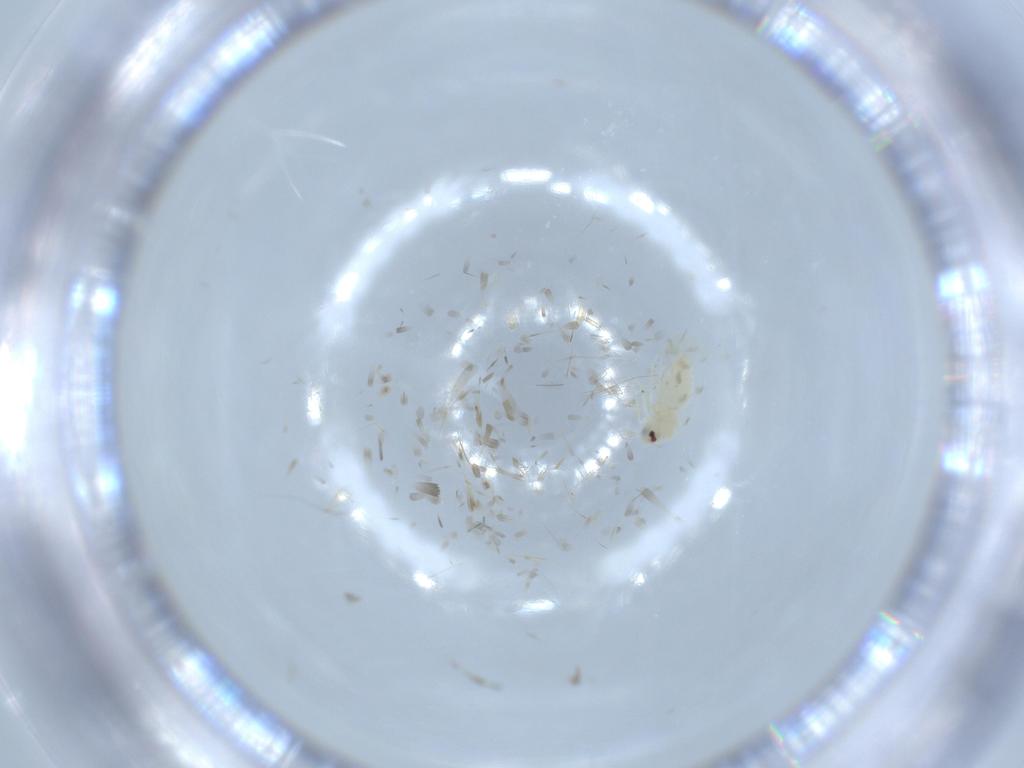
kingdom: Animalia
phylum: Arthropoda
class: Insecta
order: Hemiptera
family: Aleyrodidae
